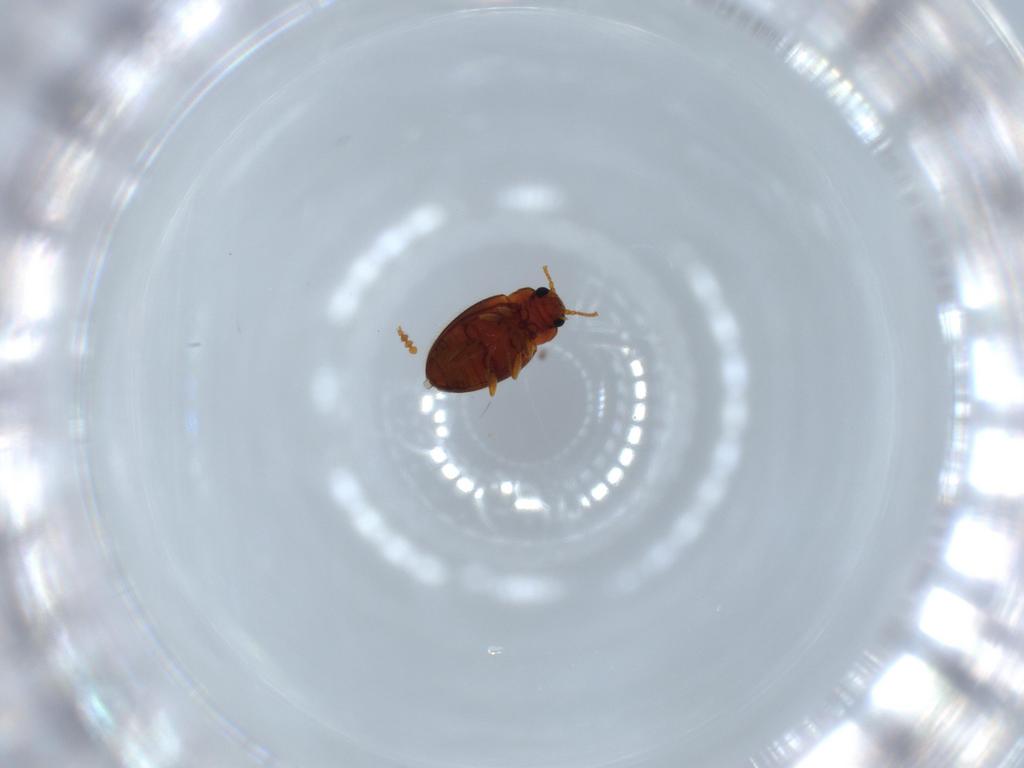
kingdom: Animalia
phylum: Arthropoda
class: Insecta
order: Coleoptera
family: Erotylidae
